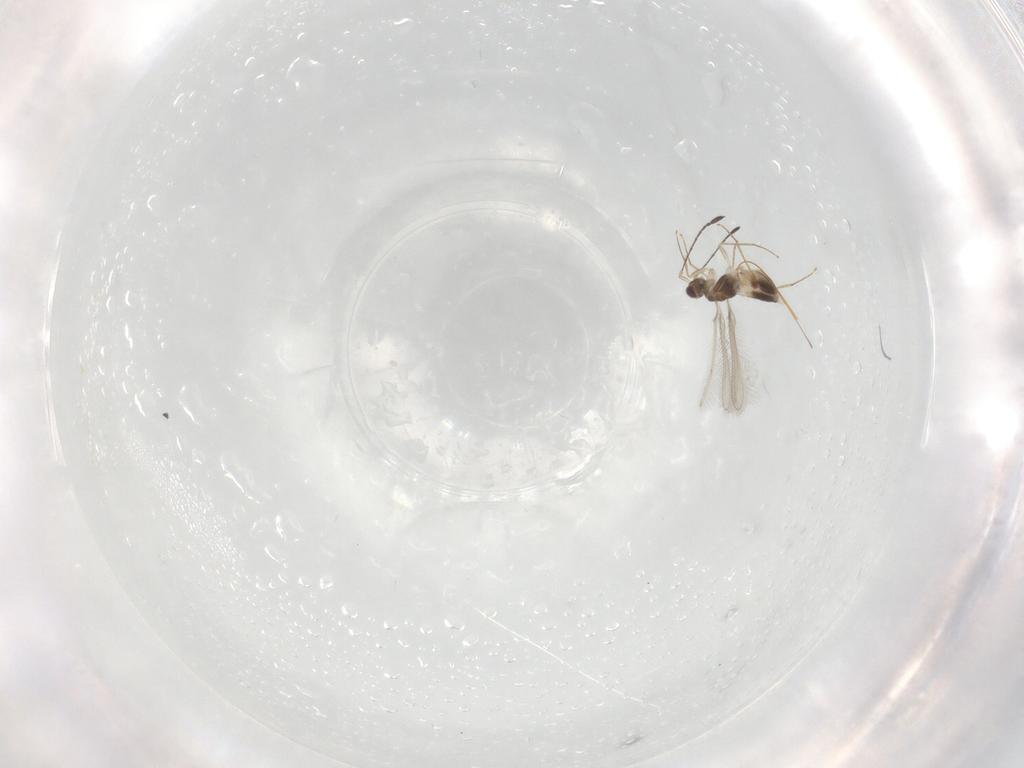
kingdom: Animalia
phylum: Arthropoda
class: Insecta
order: Hymenoptera
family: Mymaridae
